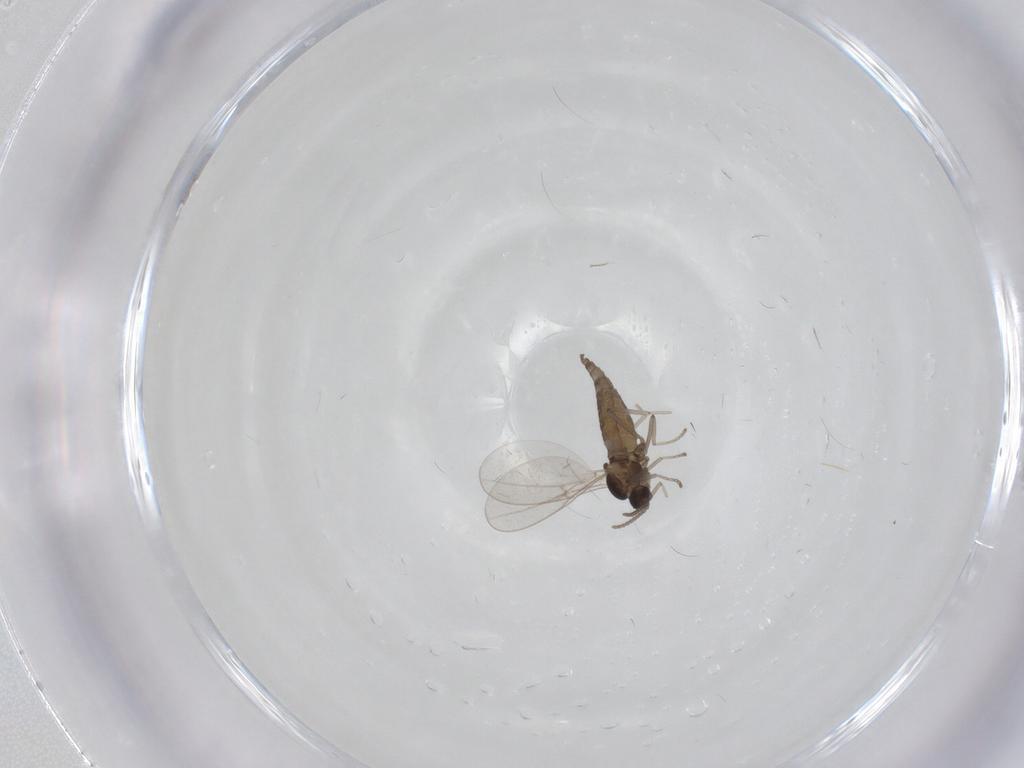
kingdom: Animalia
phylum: Arthropoda
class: Insecta
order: Diptera
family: Cecidomyiidae
